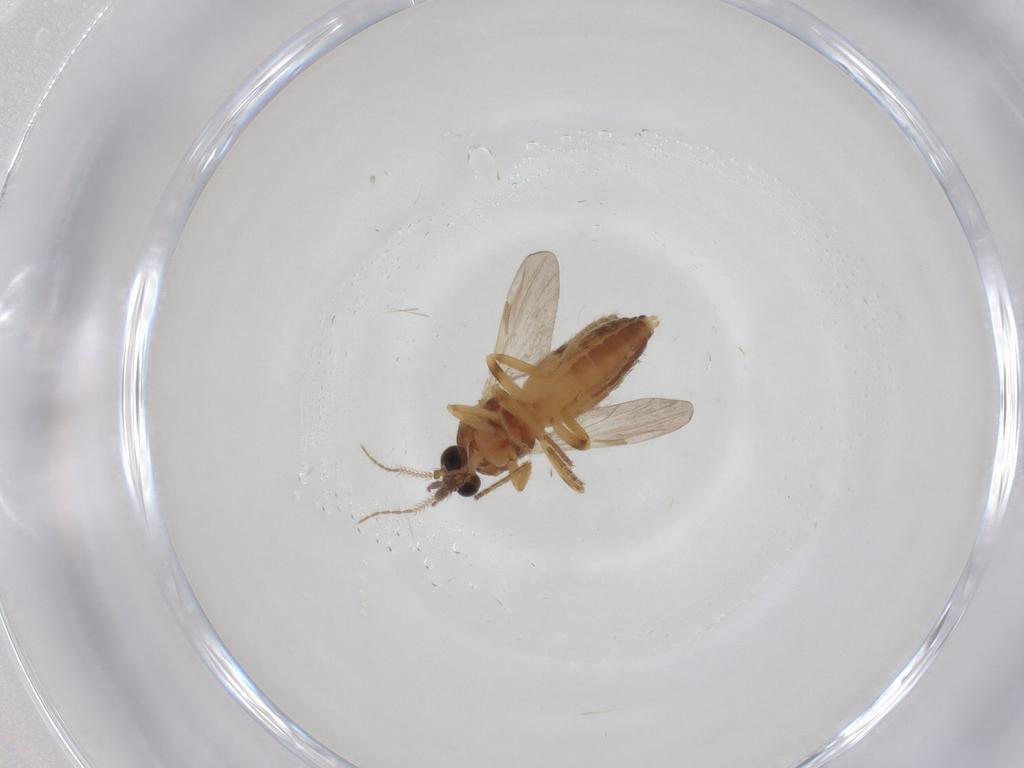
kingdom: Animalia
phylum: Arthropoda
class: Insecta
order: Diptera
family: Ceratopogonidae
